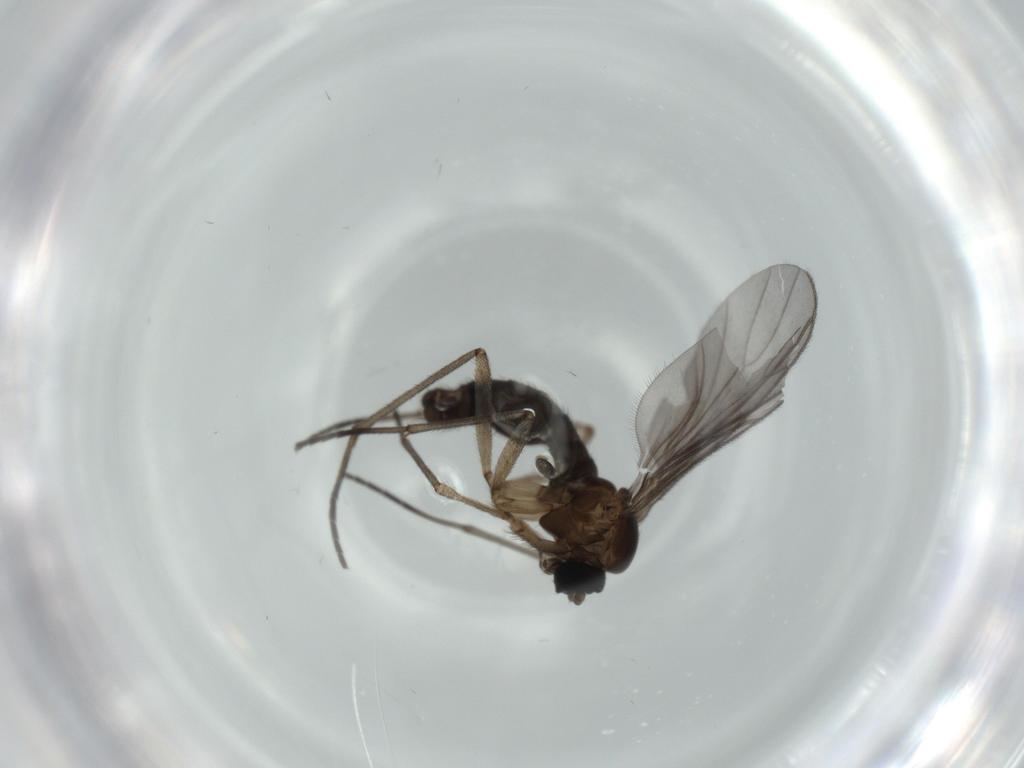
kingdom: Animalia
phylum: Arthropoda
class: Insecta
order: Diptera
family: Sciaridae
